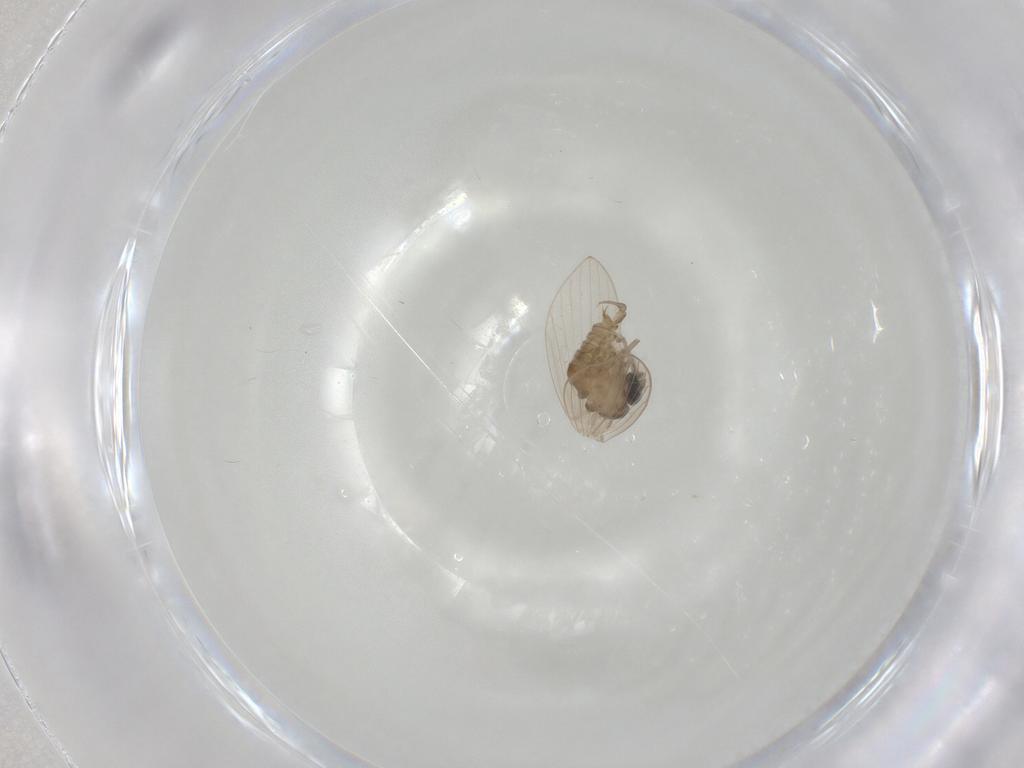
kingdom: Animalia
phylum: Arthropoda
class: Insecta
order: Diptera
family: Psychodidae
